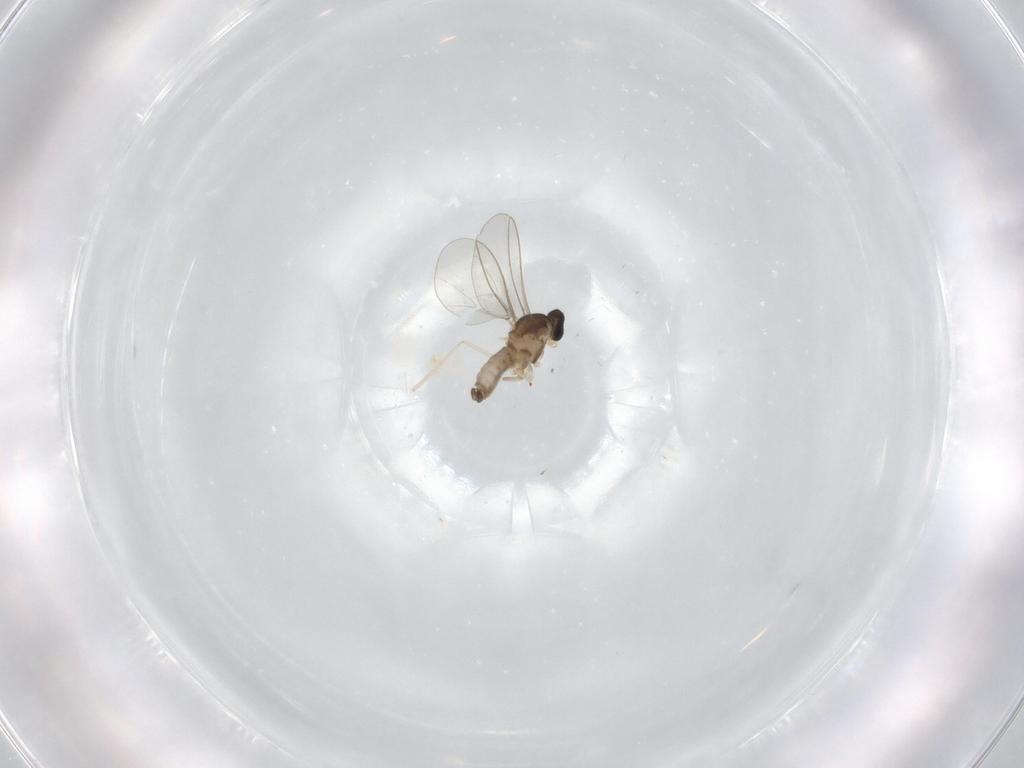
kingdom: Animalia
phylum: Arthropoda
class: Insecta
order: Diptera
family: Cecidomyiidae
